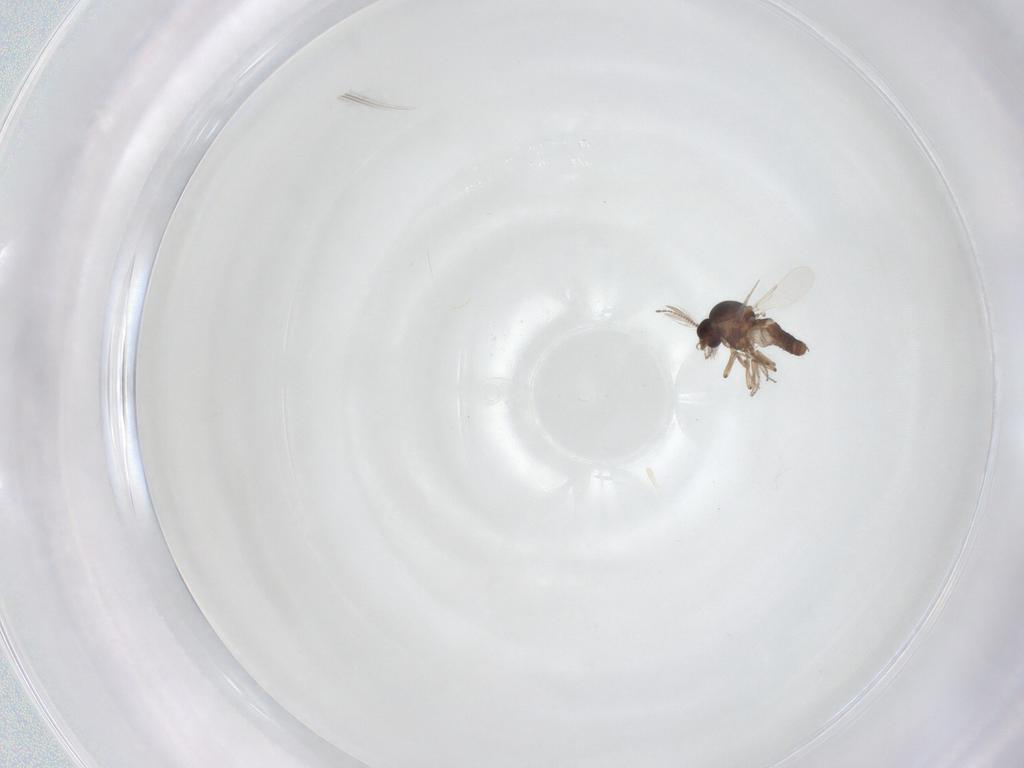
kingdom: Animalia
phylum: Arthropoda
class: Insecta
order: Diptera
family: Ceratopogonidae
